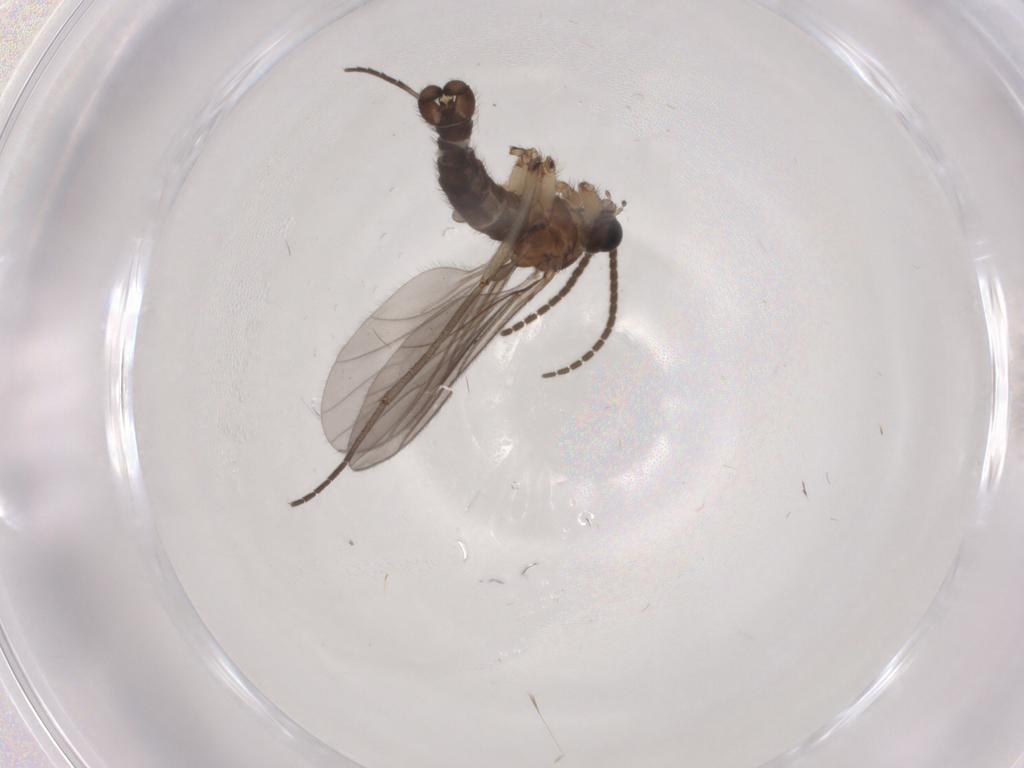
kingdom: Animalia
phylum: Arthropoda
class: Insecta
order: Diptera
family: Sciaridae
